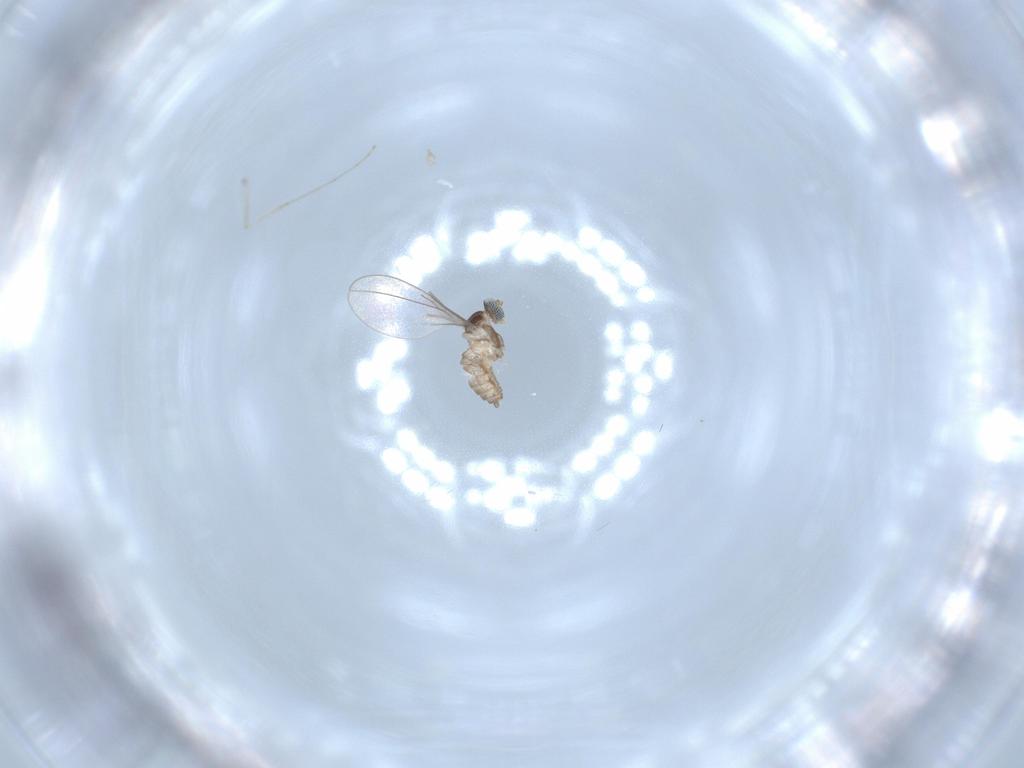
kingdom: Animalia
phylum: Arthropoda
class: Insecta
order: Diptera
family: Cecidomyiidae
